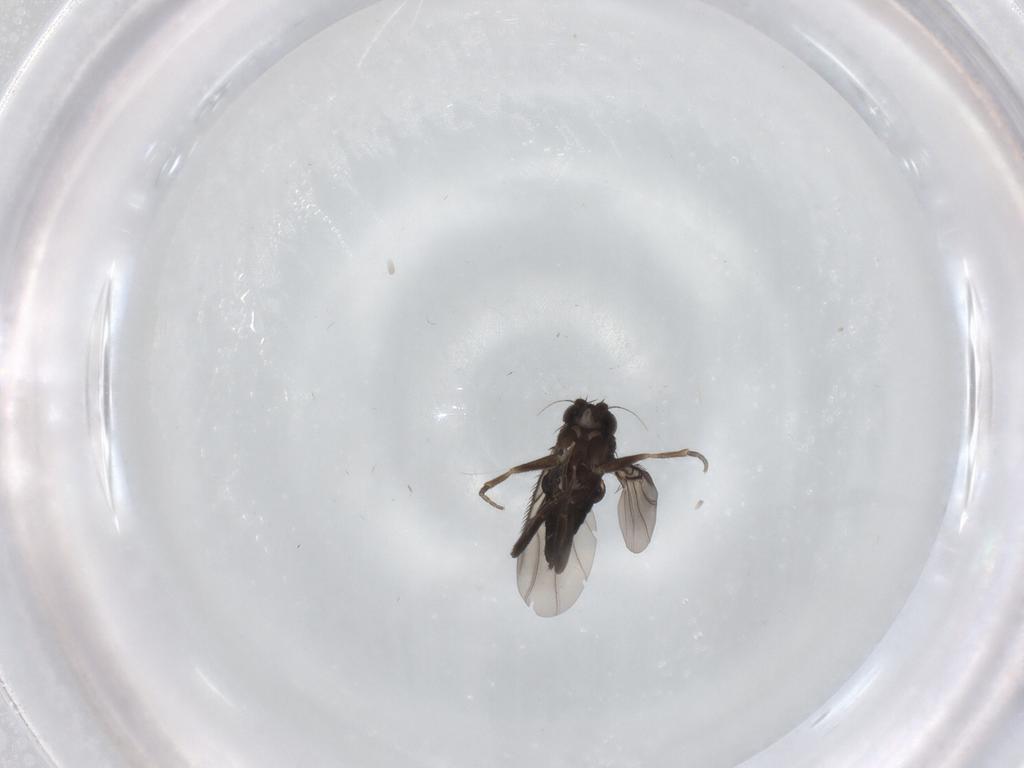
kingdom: Animalia
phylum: Arthropoda
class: Insecta
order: Diptera
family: Phoridae
